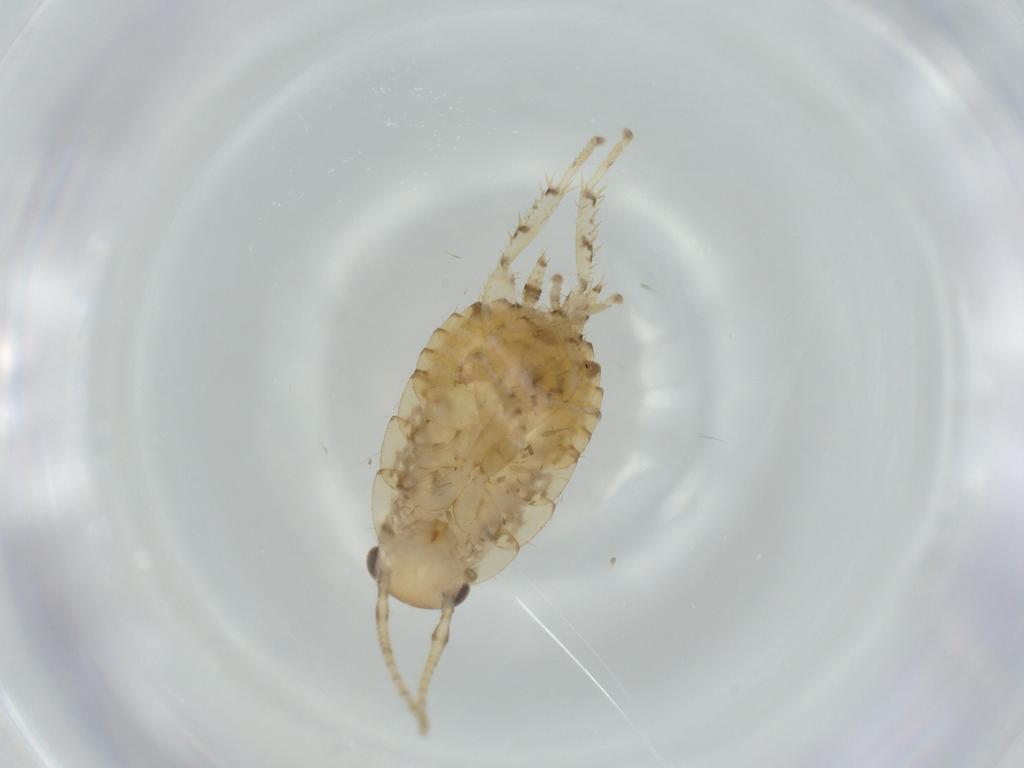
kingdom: Animalia
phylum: Arthropoda
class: Insecta
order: Blattodea
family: Ectobiidae
